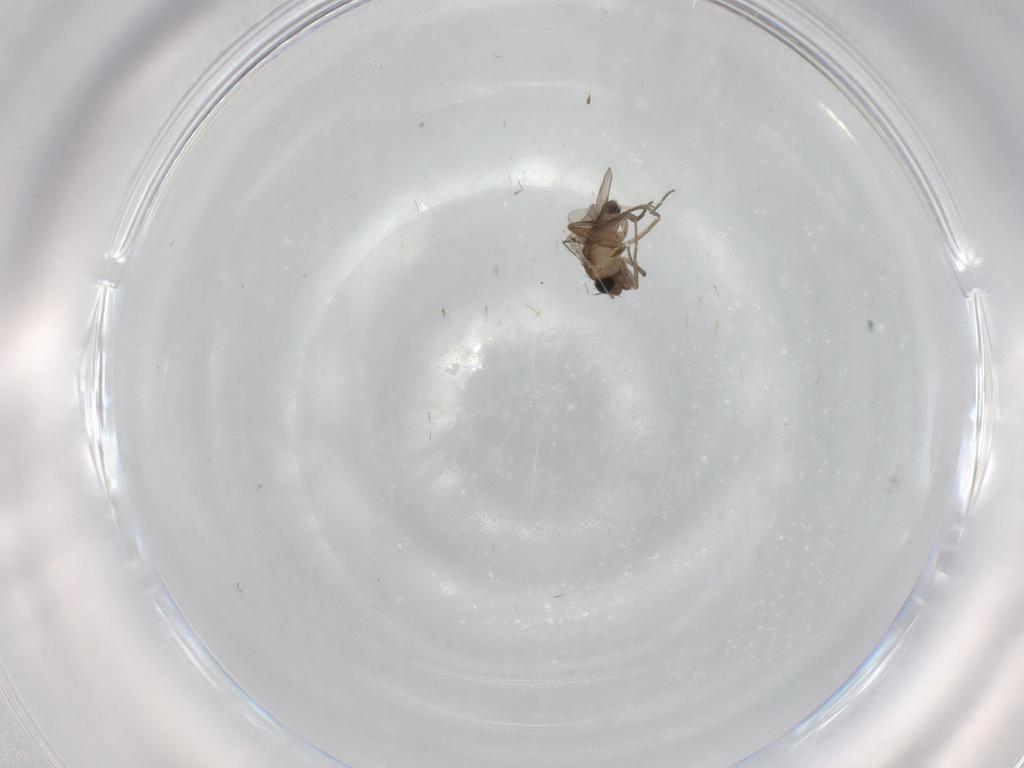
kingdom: Animalia
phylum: Arthropoda
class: Insecta
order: Diptera
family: Phoridae
